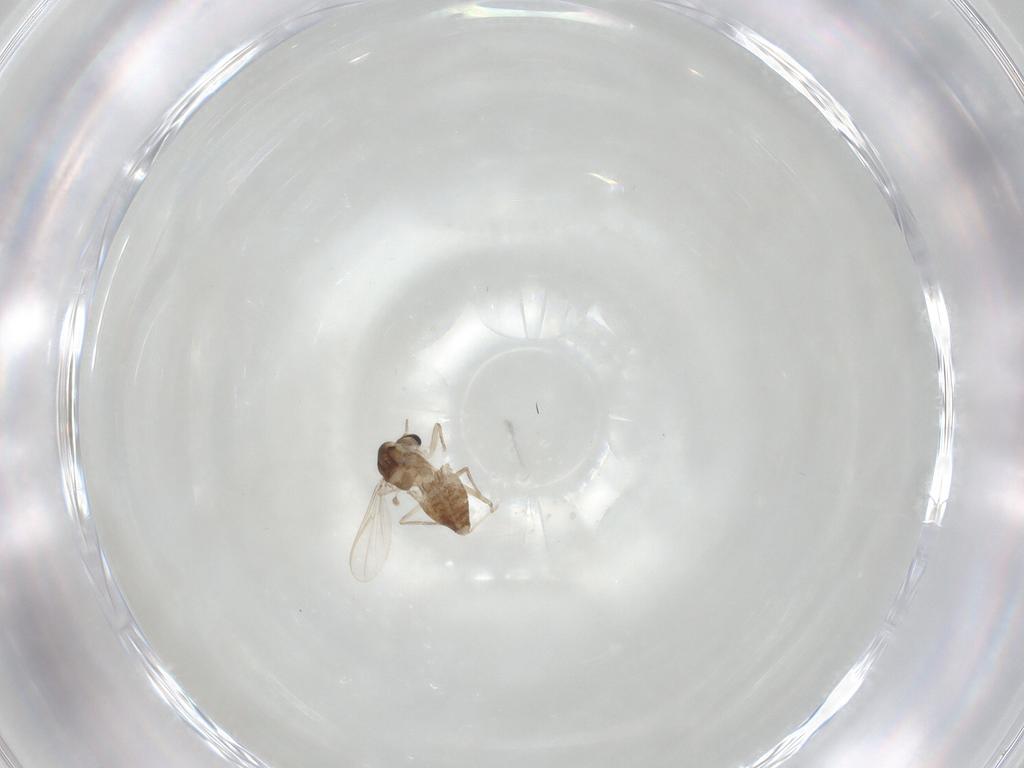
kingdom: Animalia
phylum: Arthropoda
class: Insecta
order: Diptera
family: Chironomidae
